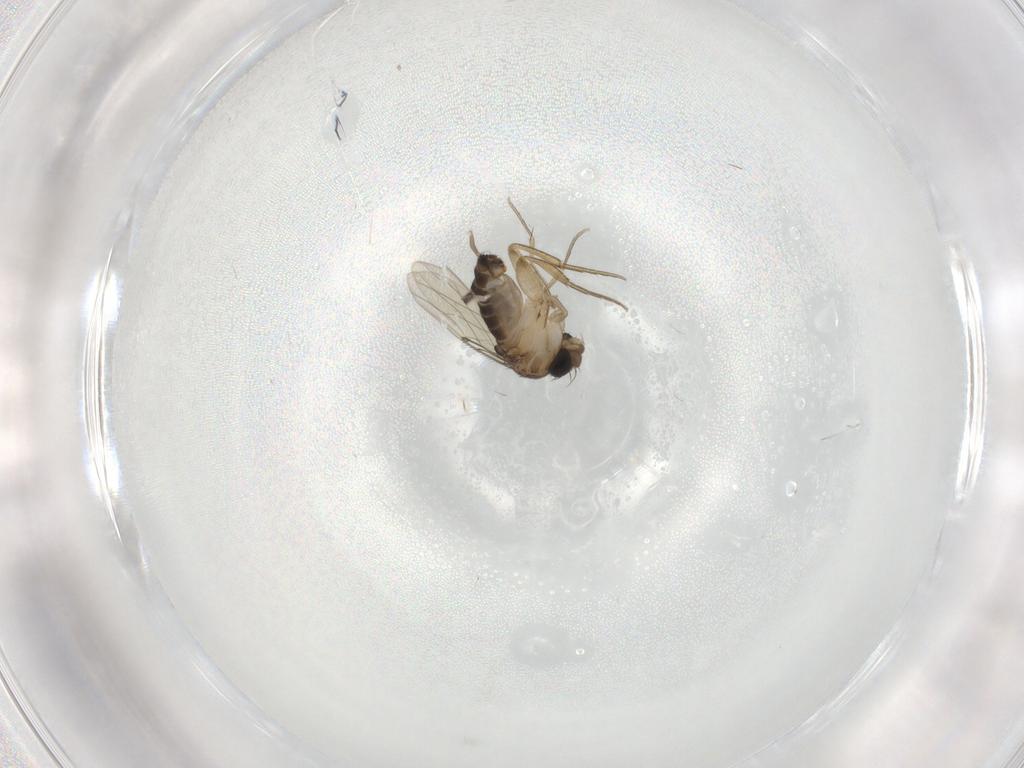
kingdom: Animalia
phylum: Arthropoda
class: Insecta
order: Diptera
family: Phoridae
